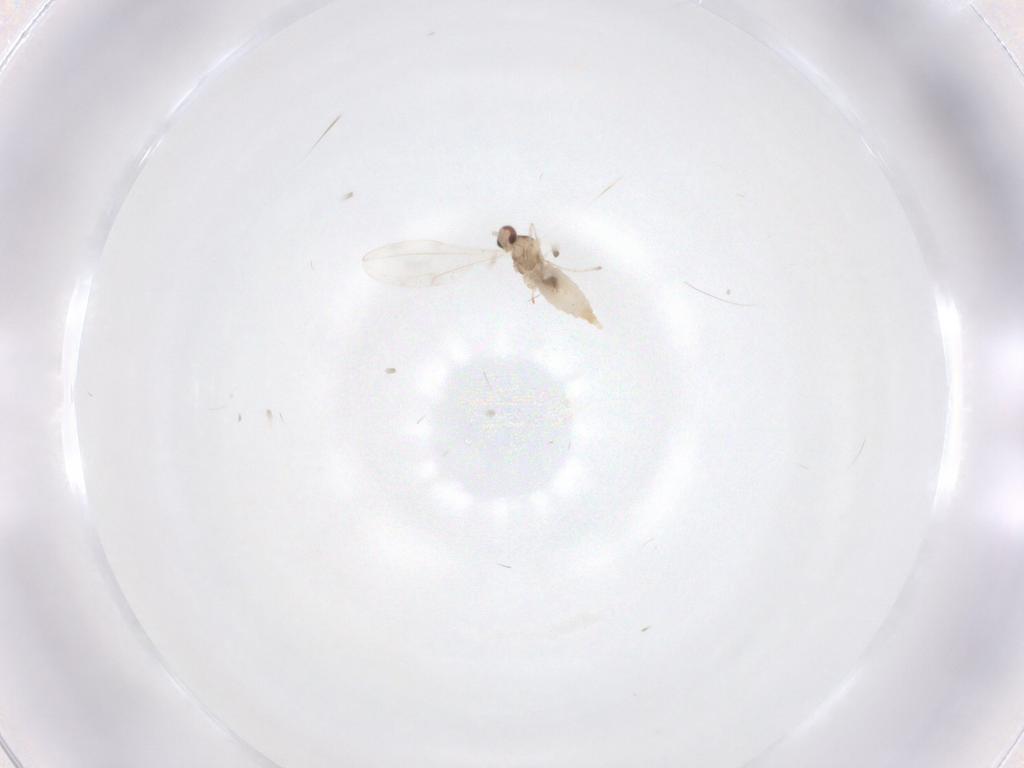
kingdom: Animalia
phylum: Arthropoda
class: Insecta
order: Diptera
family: Cecidomyiidae
